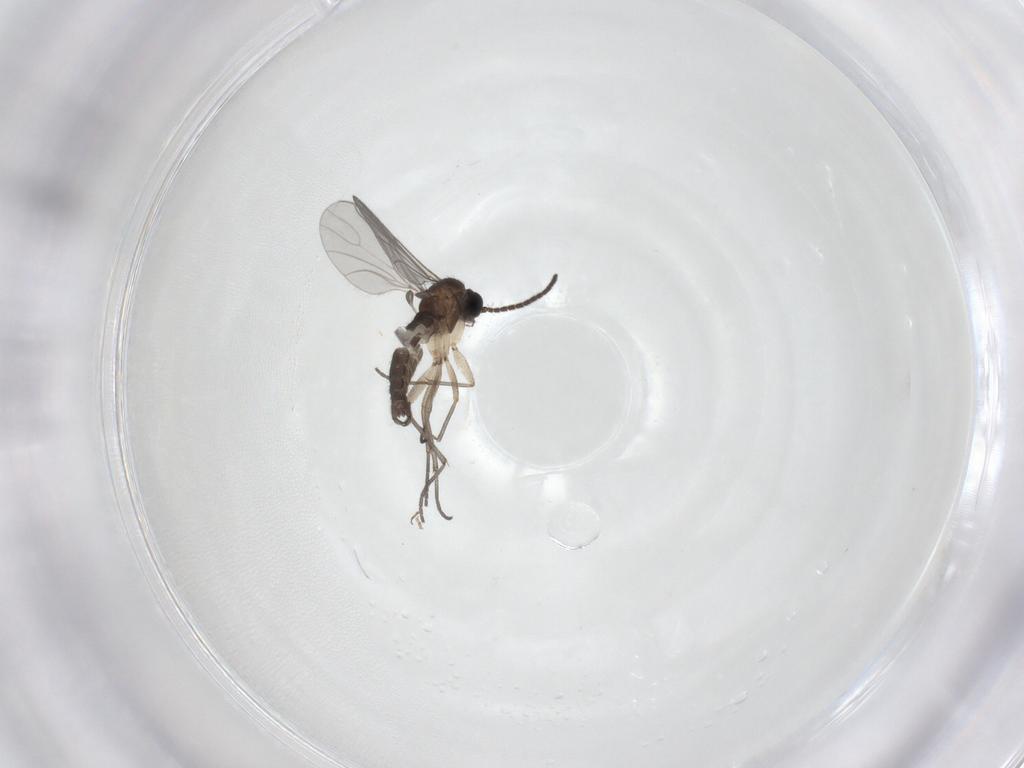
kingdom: Animalia
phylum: Arthropoda
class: Insecta
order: Diptera
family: Sciaridae
